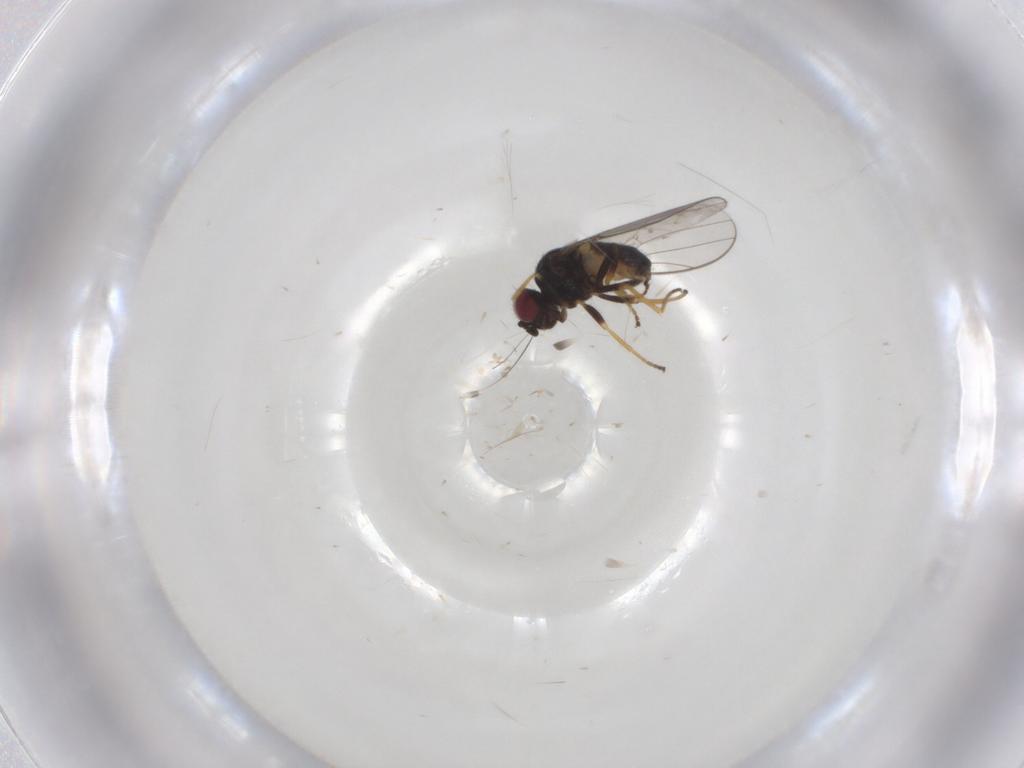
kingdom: Animalia
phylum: Arthropoda
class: Insecta
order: Diptera
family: Chloropidae
